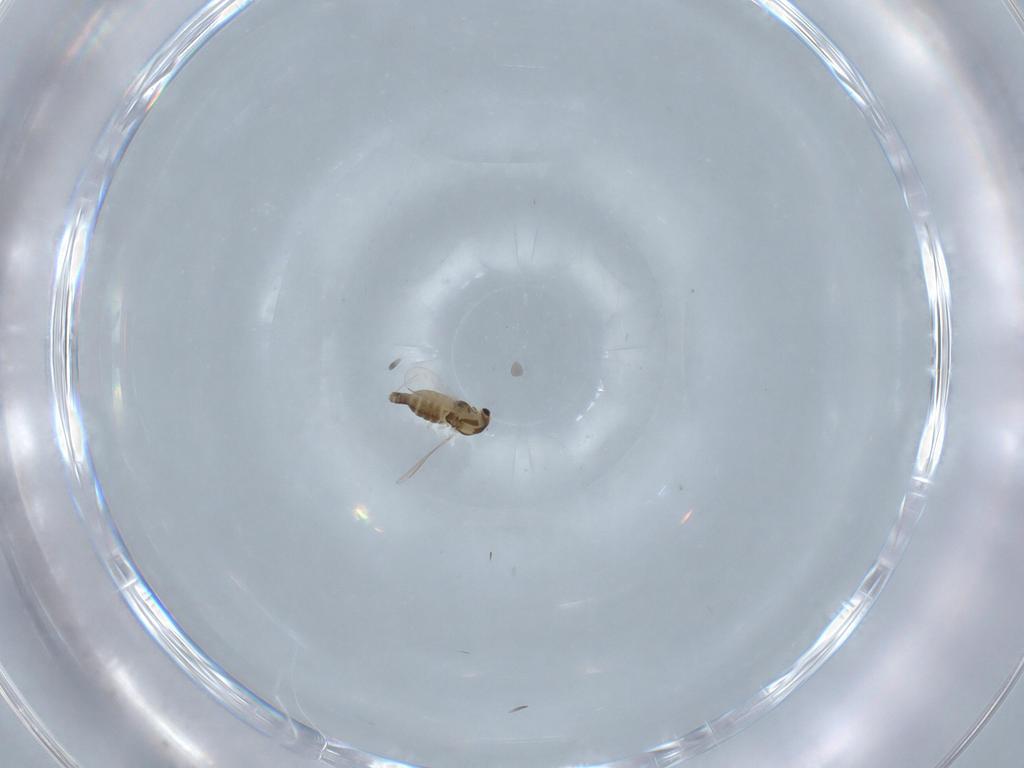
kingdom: Animalia
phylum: Arthropoda
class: Insecta
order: Diptera
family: Chironomidae
